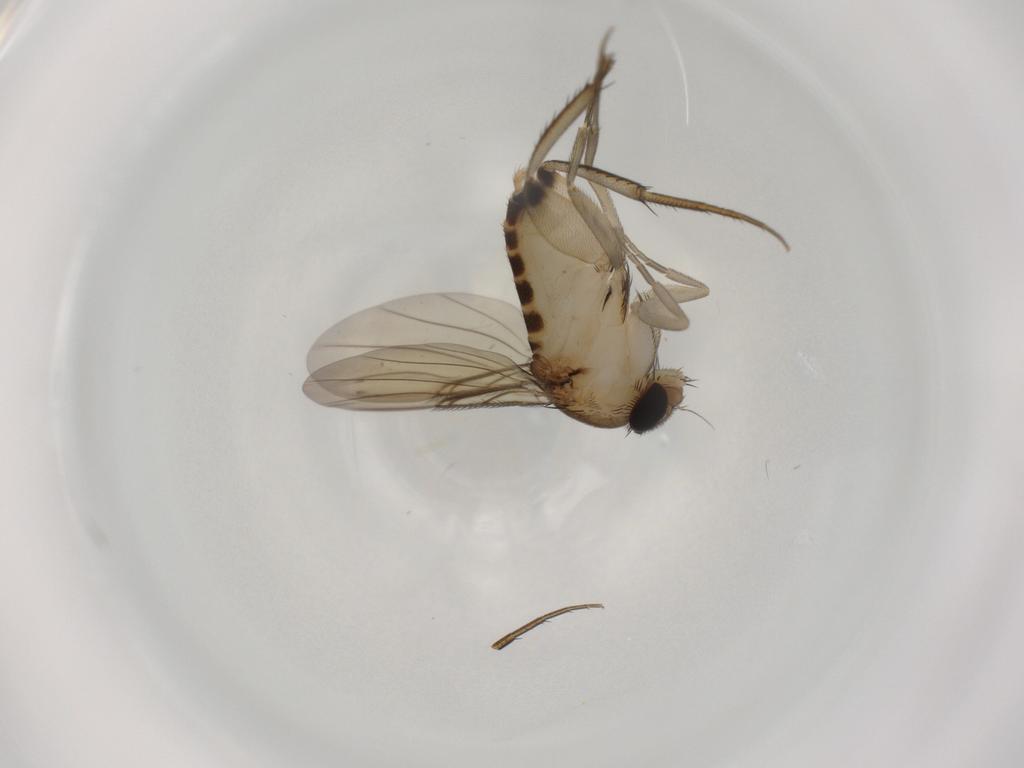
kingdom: Animalia
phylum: Arthropoda
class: Insecta
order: Diptera
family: Phoridae
